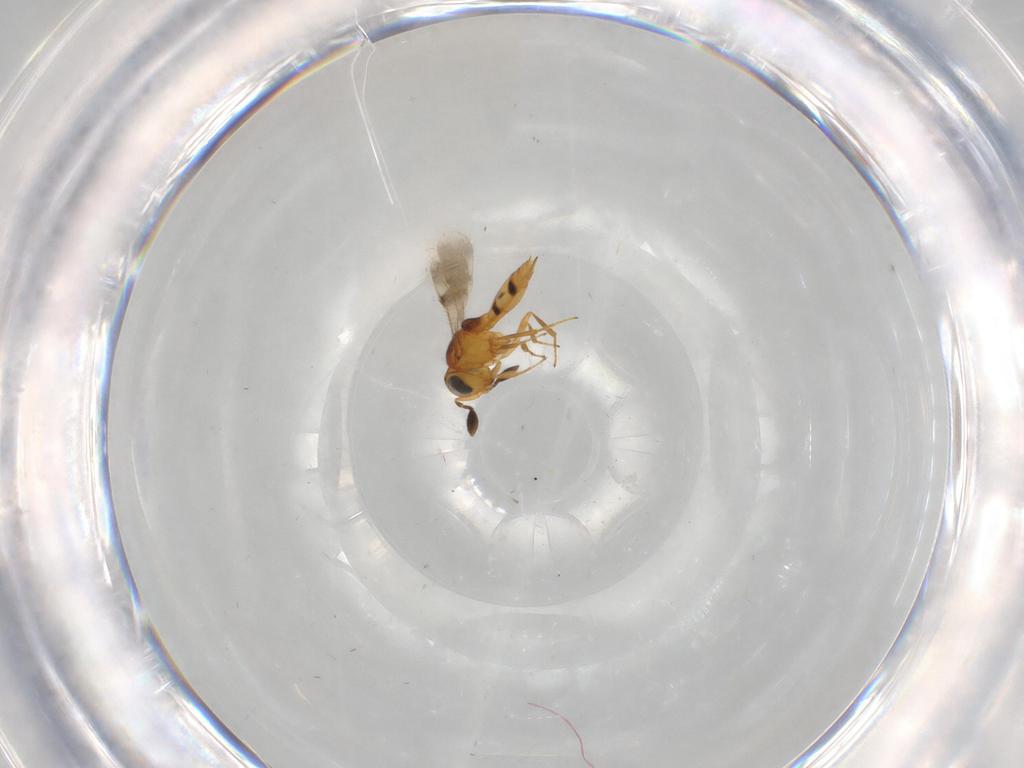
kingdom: Animalia
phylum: Arthropoda
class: Insecta
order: Hymenoptera
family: Scelionidae
